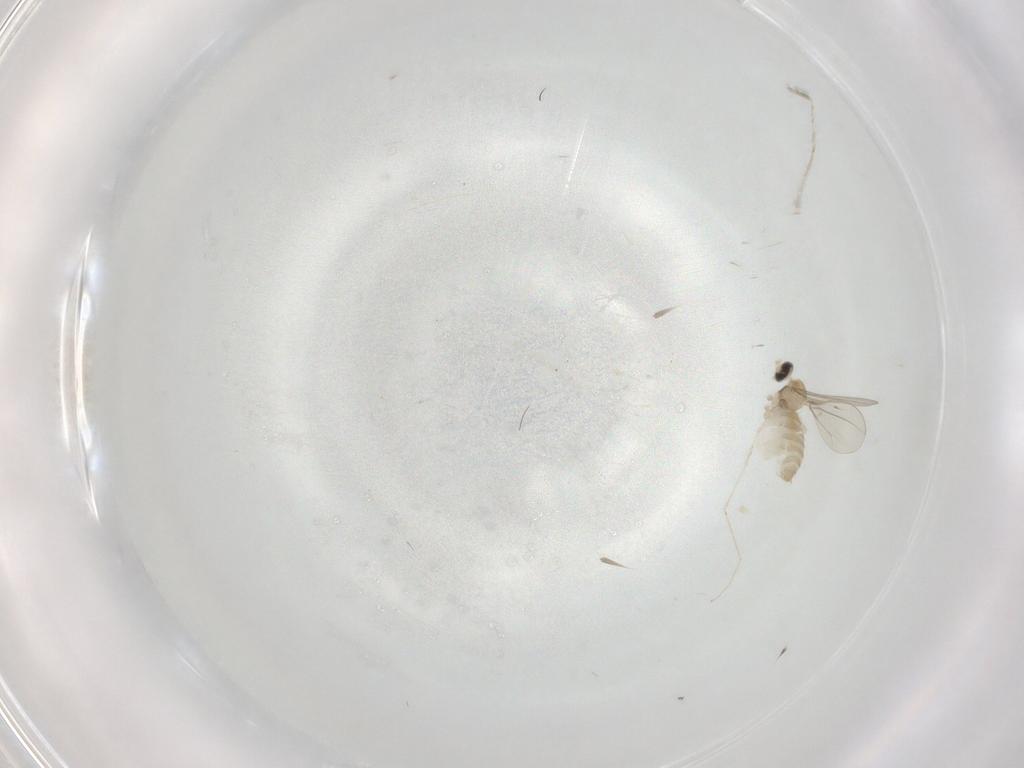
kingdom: Animalia
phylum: Arthropoda
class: Insecta
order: Diptera
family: Cecidomyiidae
